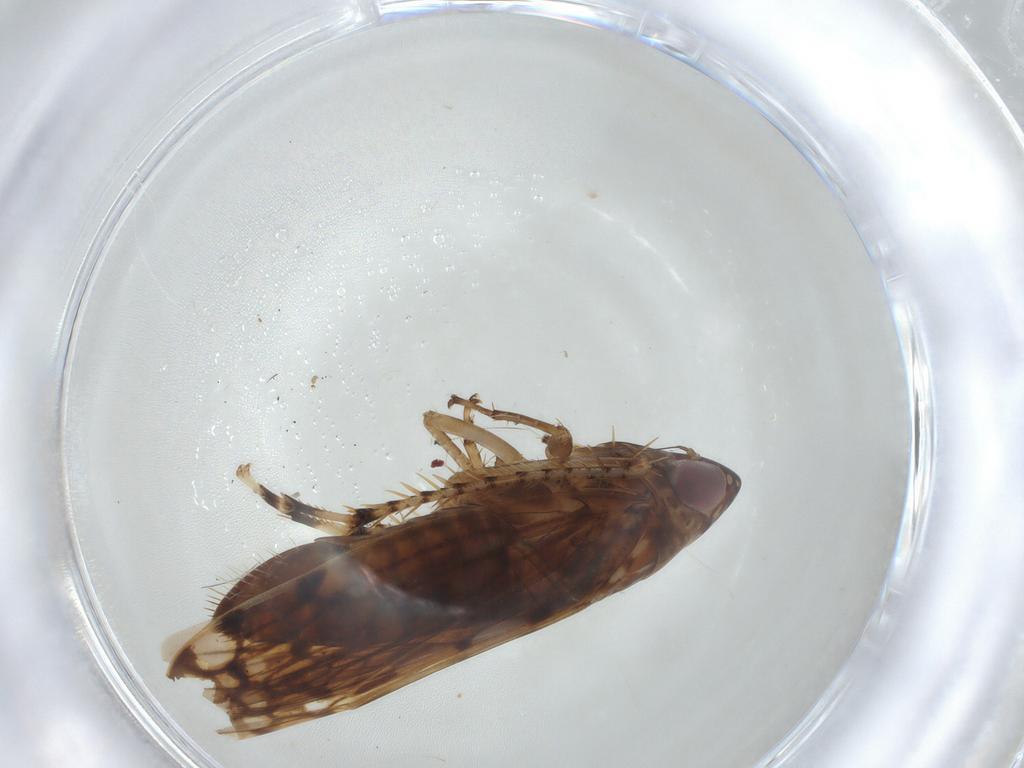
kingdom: Animalia
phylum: Arthropoda
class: Insecta
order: Hemiptera
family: Cicadellidae
